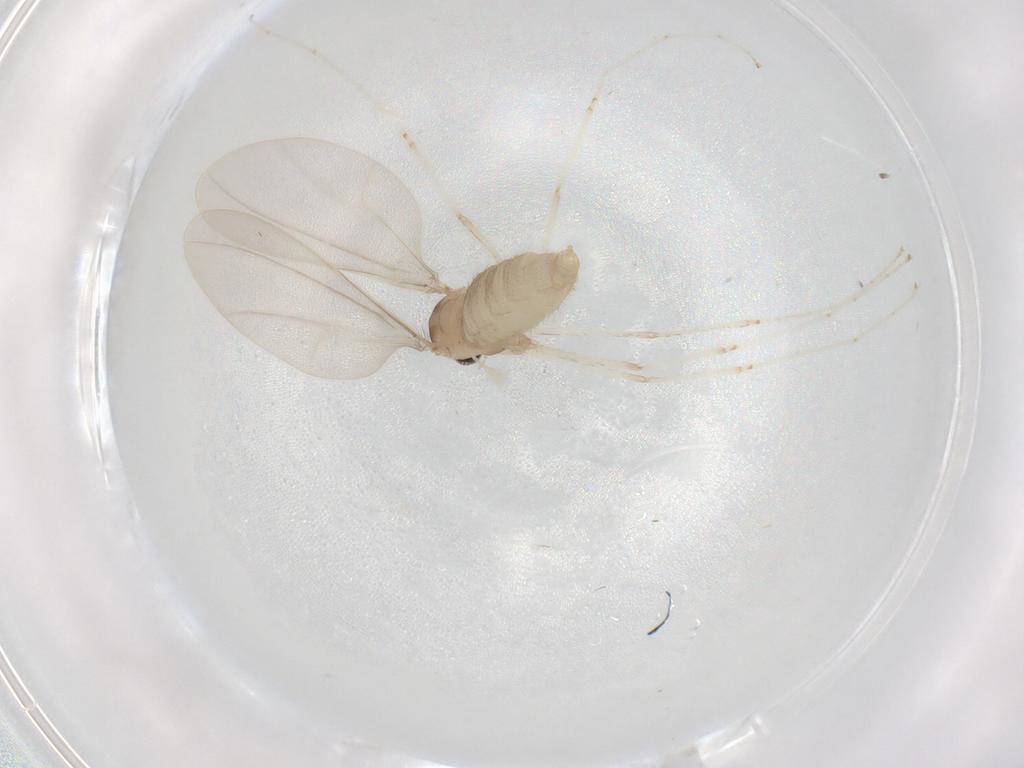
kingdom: Animalia
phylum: Arthropoda
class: Insecta
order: Diptera
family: Cecidomyiidae
